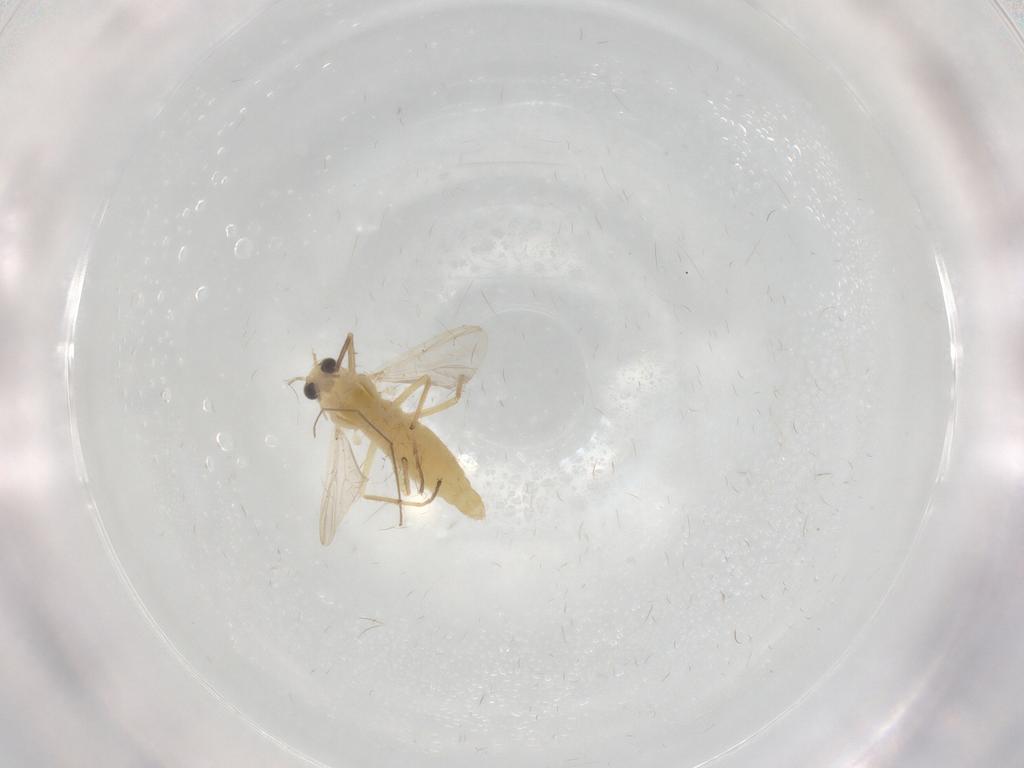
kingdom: Animalia
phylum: Arthropoda
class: Insecta
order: Diptera
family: Chironomidae
